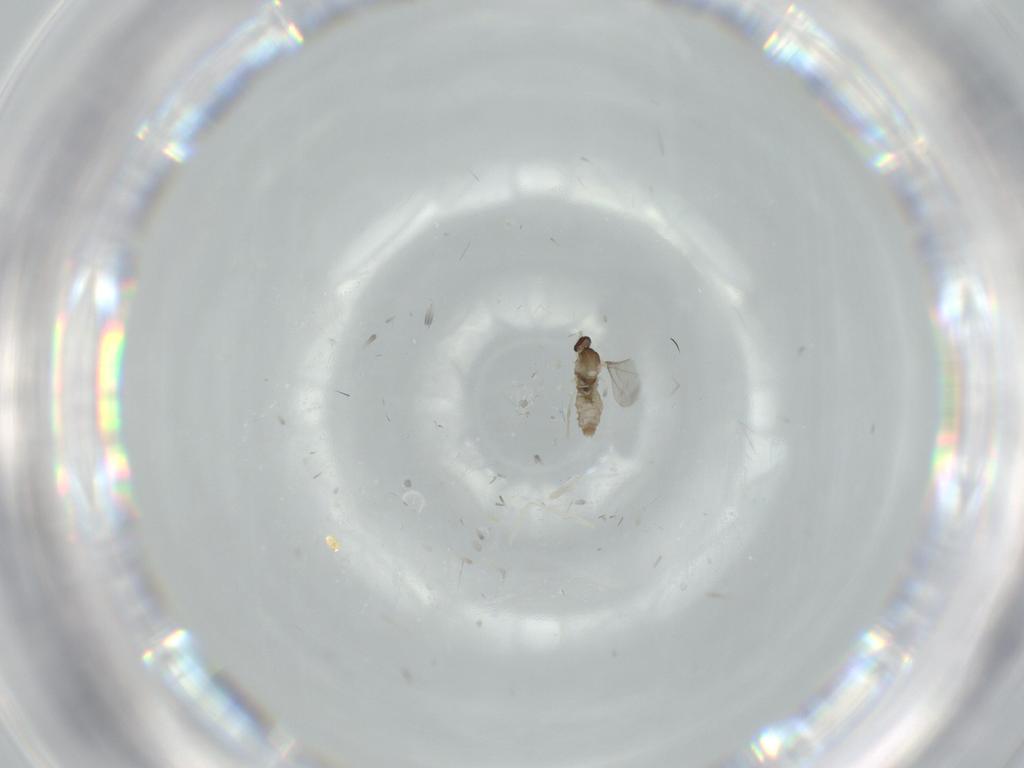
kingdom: Animalia
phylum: Arthropoda
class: Insecta
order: Diptera
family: Cecidomyiidae
